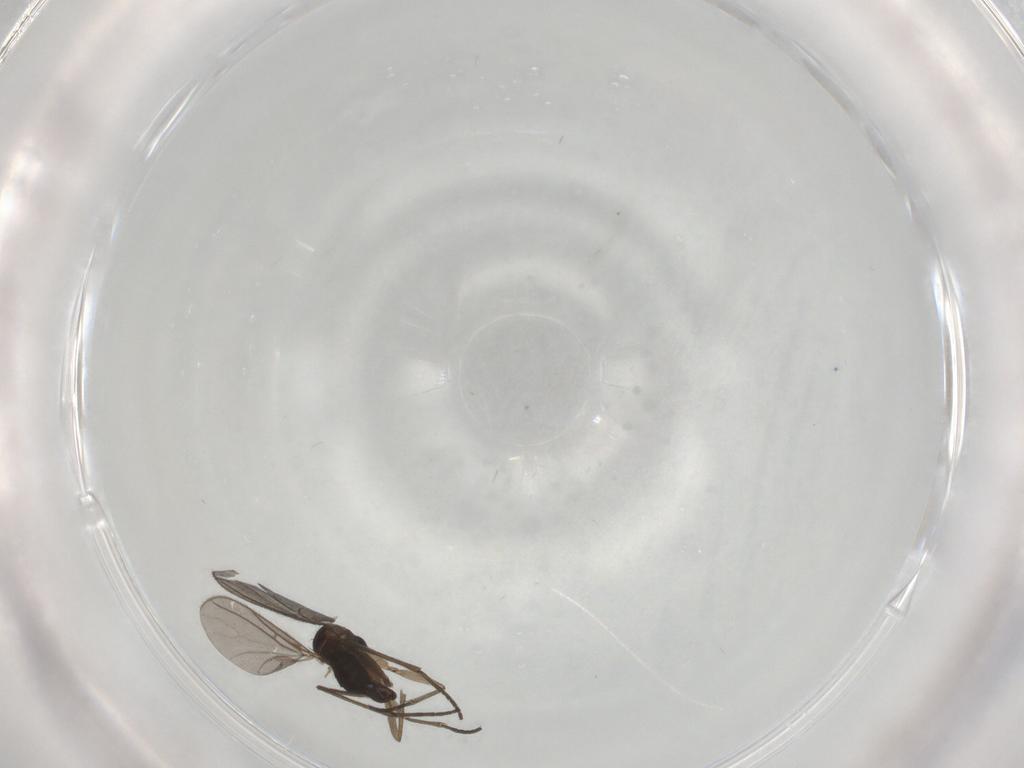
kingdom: Animalia
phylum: Arthropoda
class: Insecta
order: Diptera
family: Sciaridae
